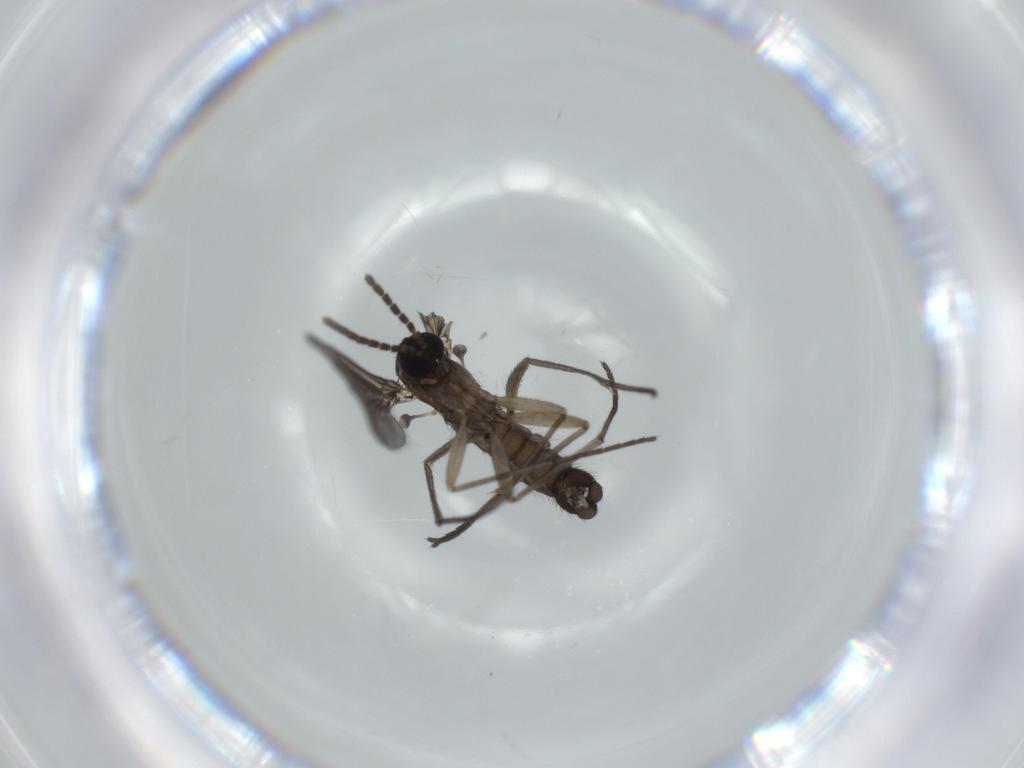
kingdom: Animalia
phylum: Arthropoda
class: Insecta
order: Diptera
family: Sciaridae
